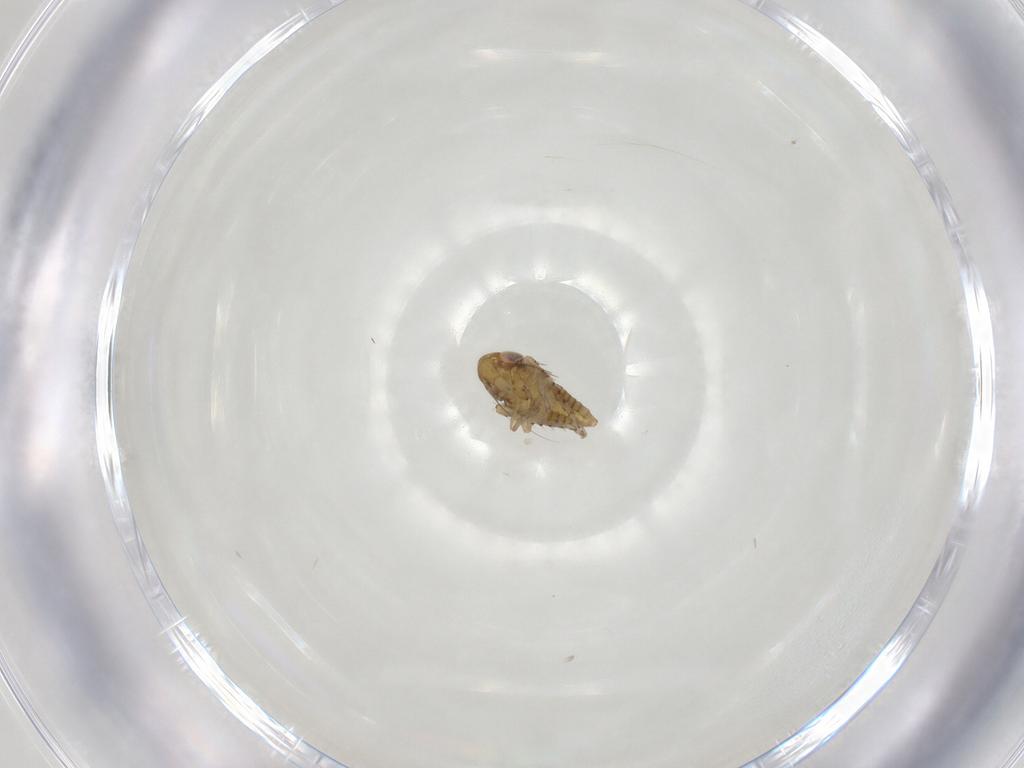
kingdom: Animalia
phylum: Arthropoda
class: Insecta
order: Hemiptera
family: Cicadellidae
